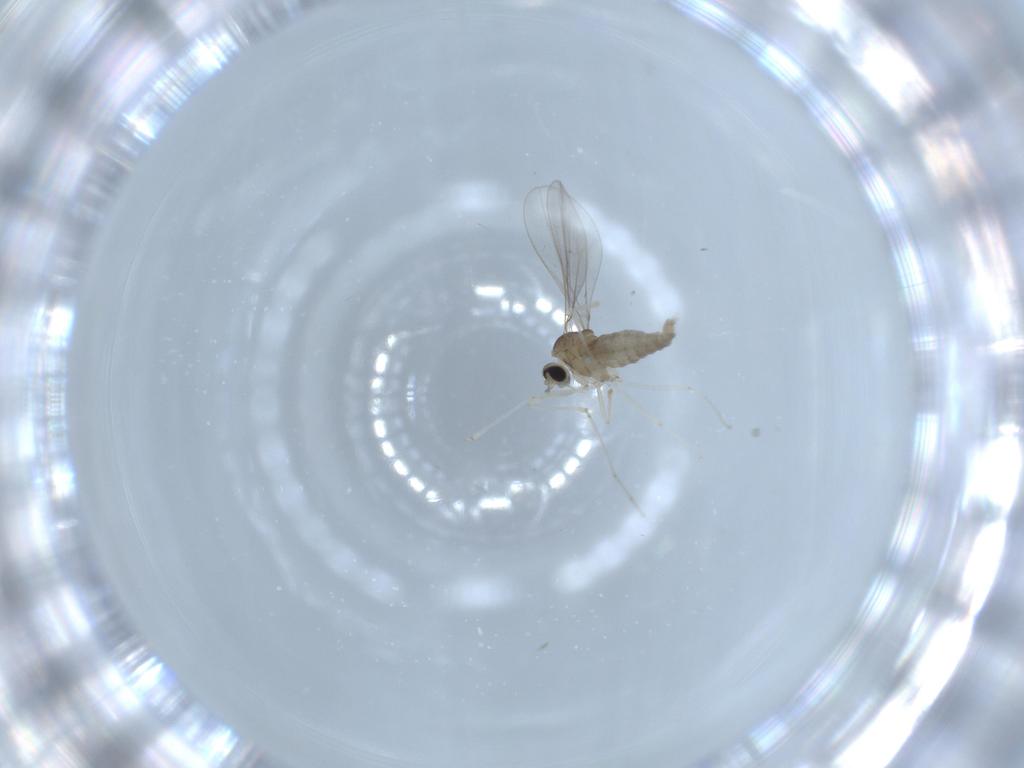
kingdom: Animalia
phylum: Arthropoda
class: Insecta
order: Diptera
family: Cecidomyiidae
